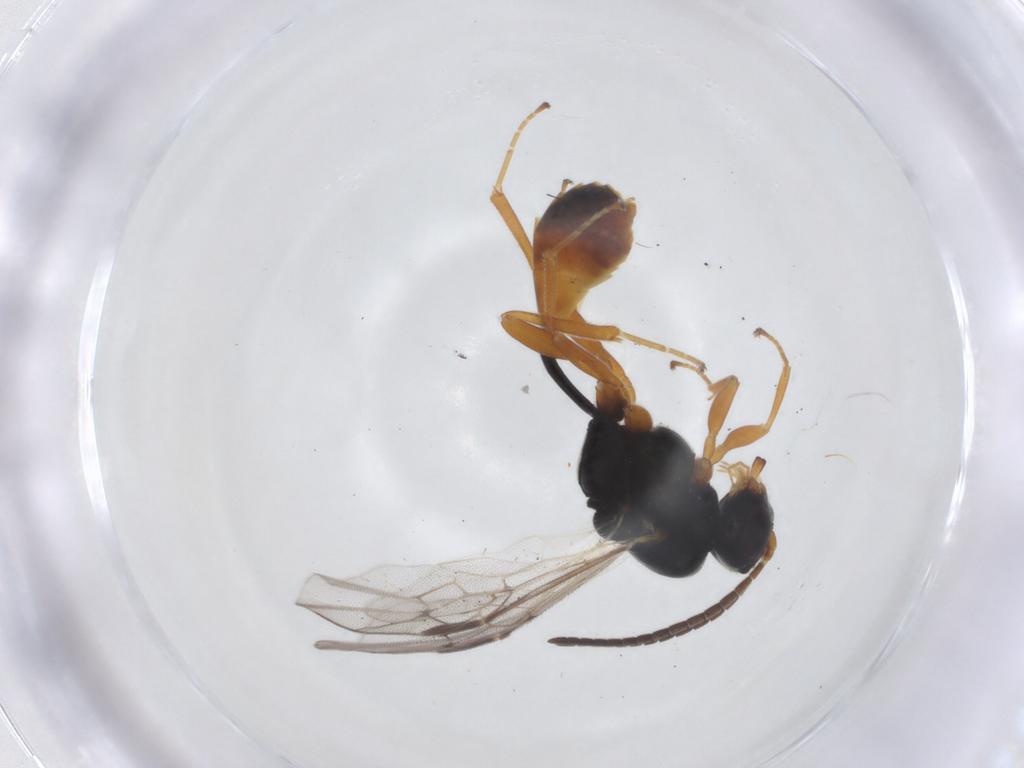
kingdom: Animalia
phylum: Arthropoda
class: Insecta
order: Hymenoptera
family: Ichneumonidae
